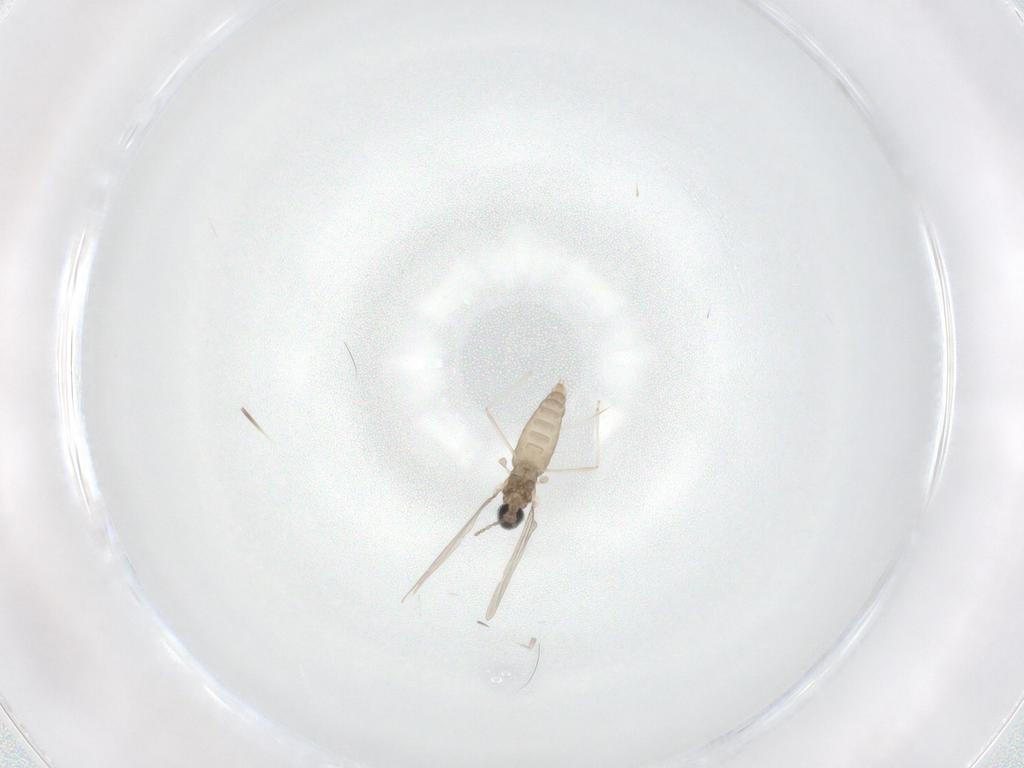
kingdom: Animalia
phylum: Arthropoda
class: Insecta
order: Diptera
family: Cecidomyiidae
